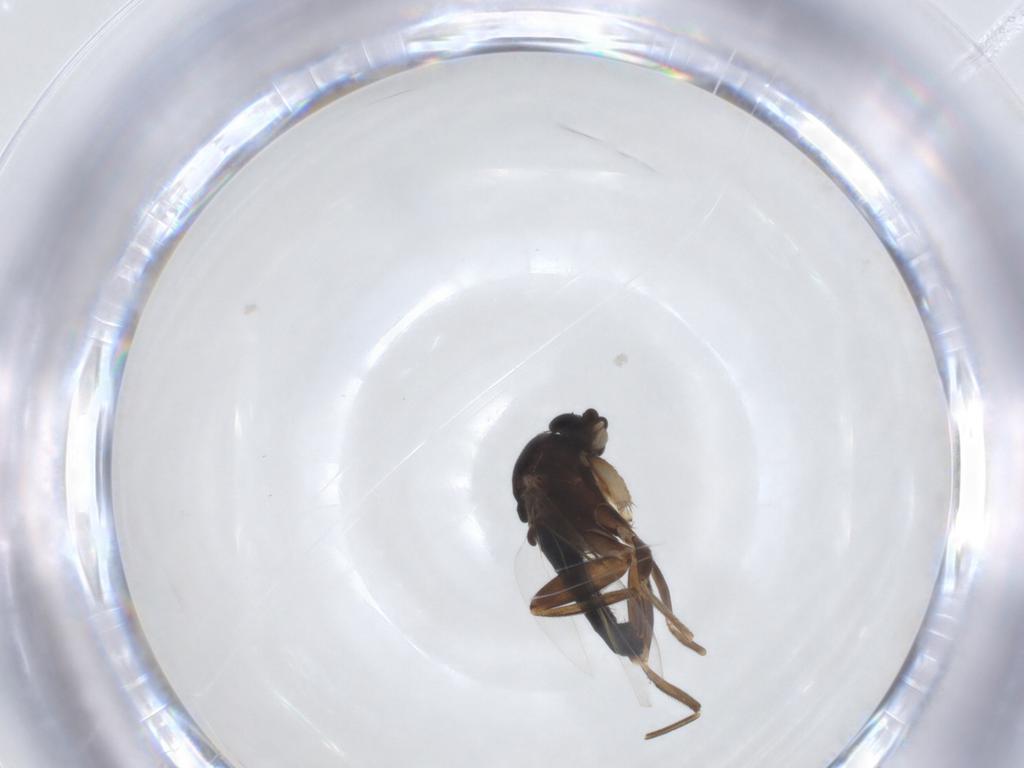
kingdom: Animalia
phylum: Arthropoda
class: Insecta
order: Diptera
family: Phoridae
